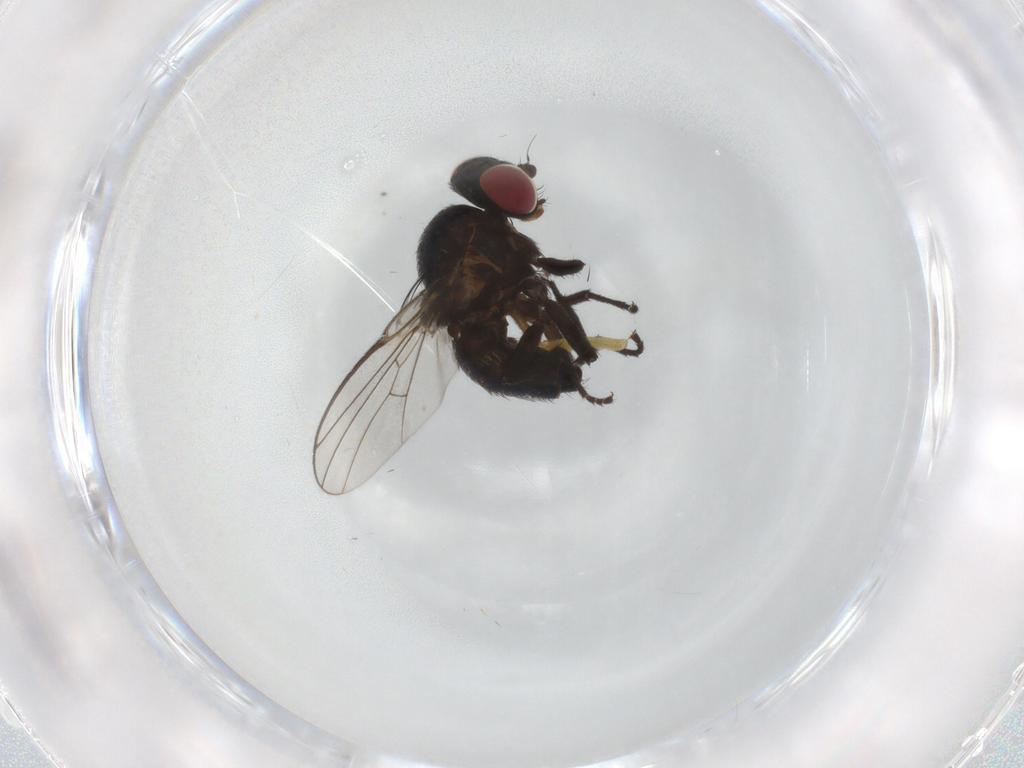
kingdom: Animalia
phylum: Arthropoda
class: Insecta
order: Diptera
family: Agromyzidae
